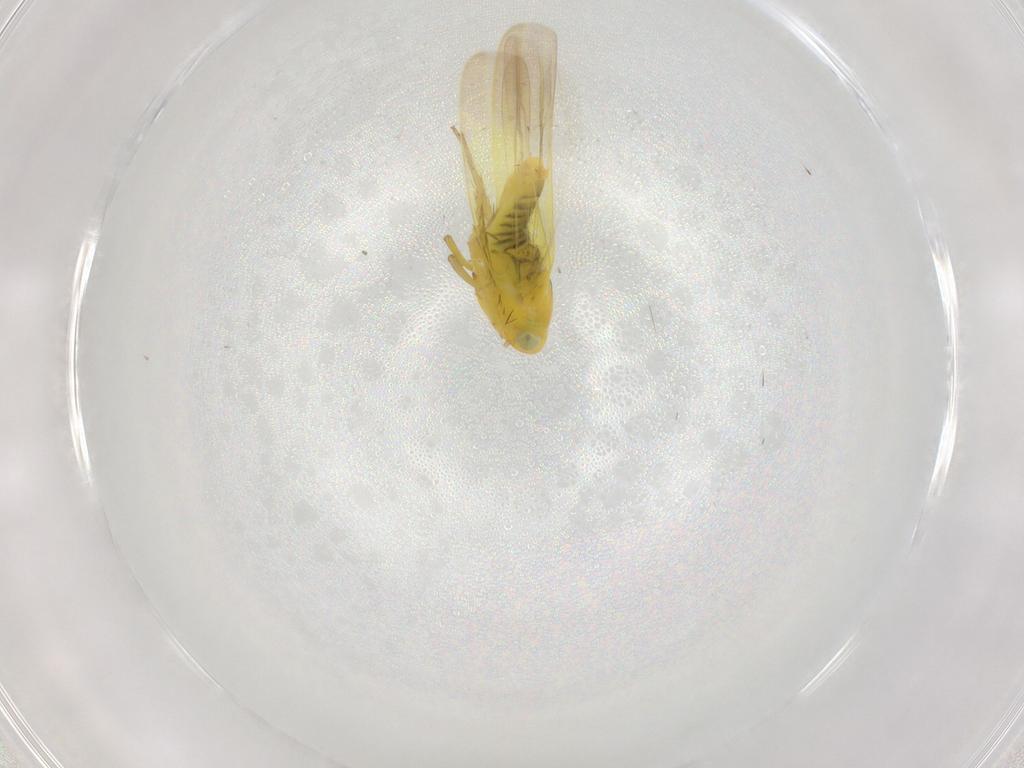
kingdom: Animalia
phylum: Arthropoda
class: Insecta
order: Hemiptera
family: Cicadellidae
